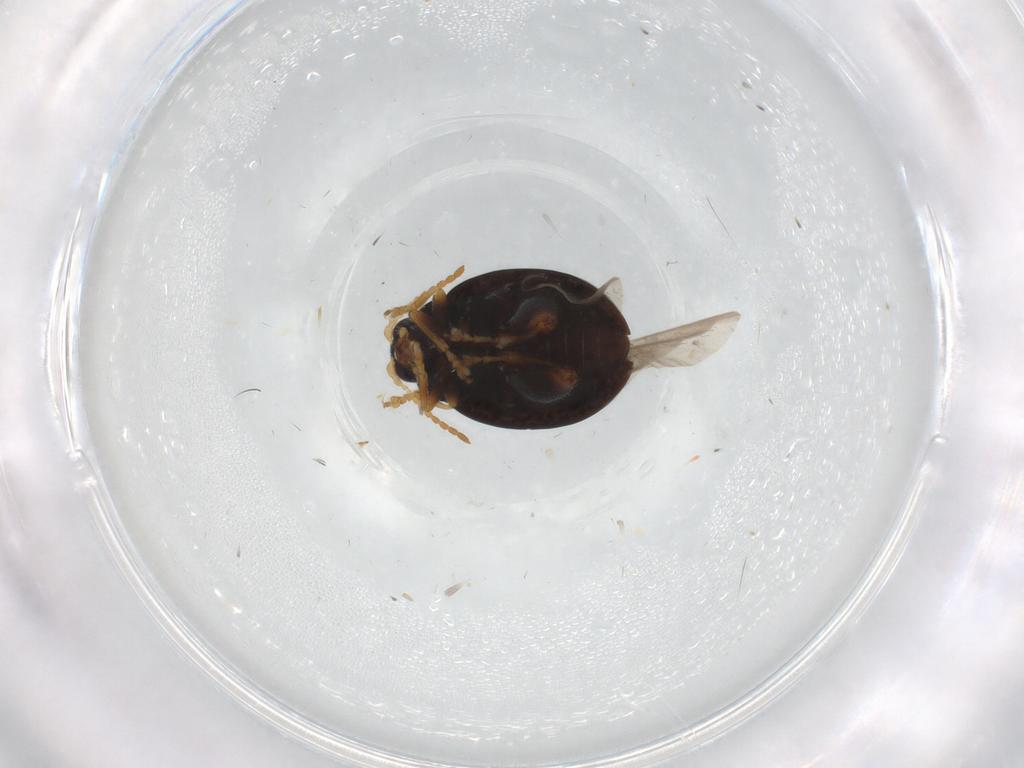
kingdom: Animalia
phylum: Arthropoda
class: Insecta
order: Coleoptera
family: Chrysomelidae
